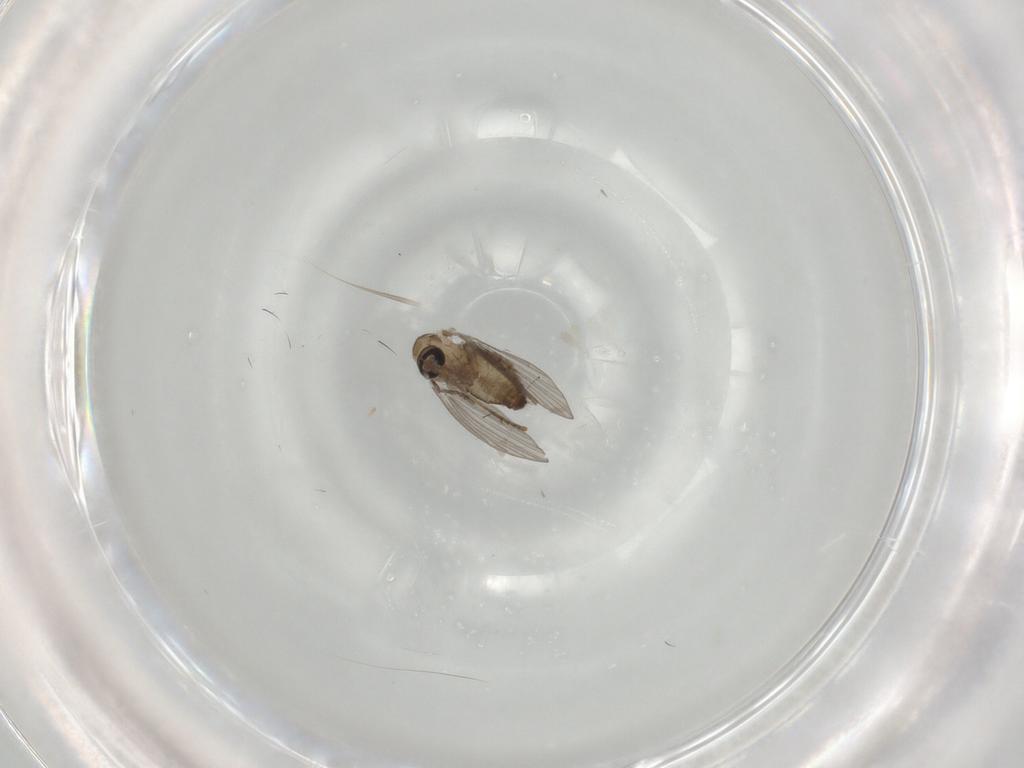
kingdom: Animalia
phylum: Arthropoda
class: Insecta
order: Diptera
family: Psychodidae
